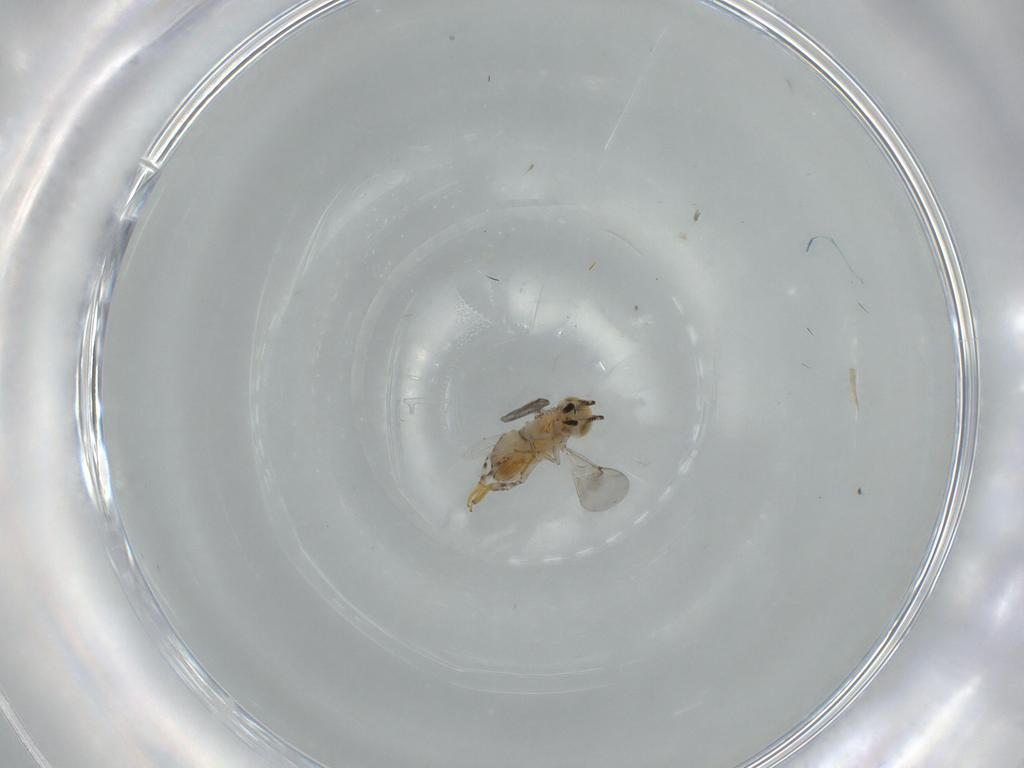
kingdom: Animalia
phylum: Arthropoda
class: Insecta
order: Hymenoptera
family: Encyrtidae
